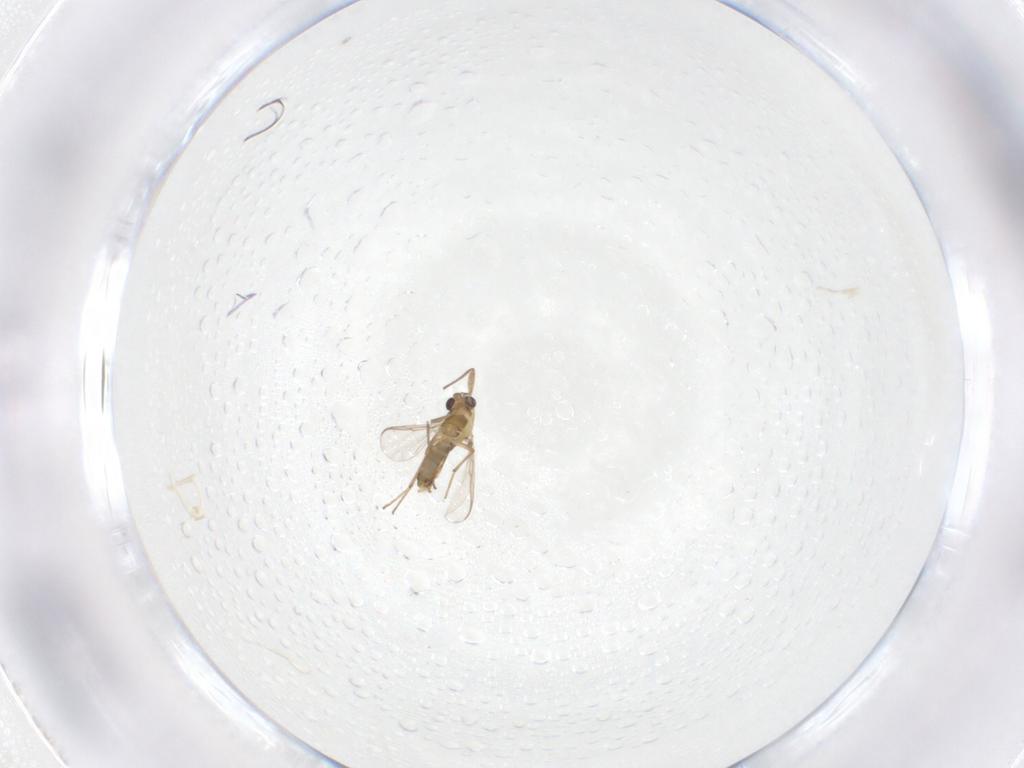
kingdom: Animalia
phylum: Arthropoda
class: Insecta
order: Diptera
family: Chironomidae
